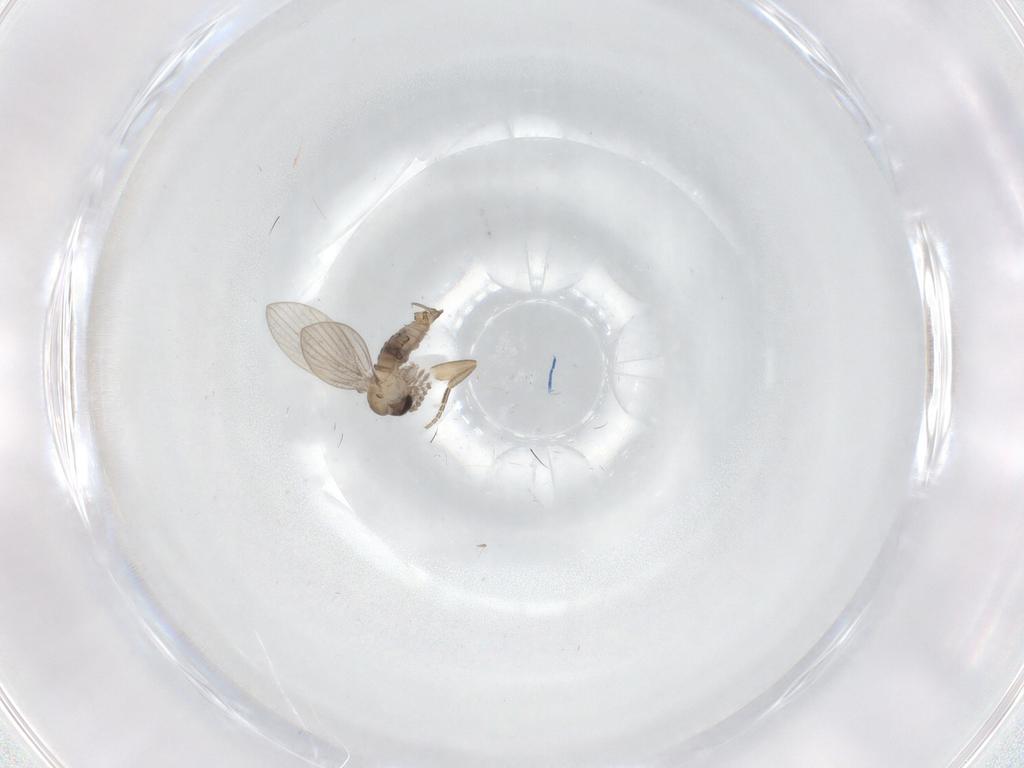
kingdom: Animalia
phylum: Arthropoda
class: Insecta
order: Diptera
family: Psychodidae
